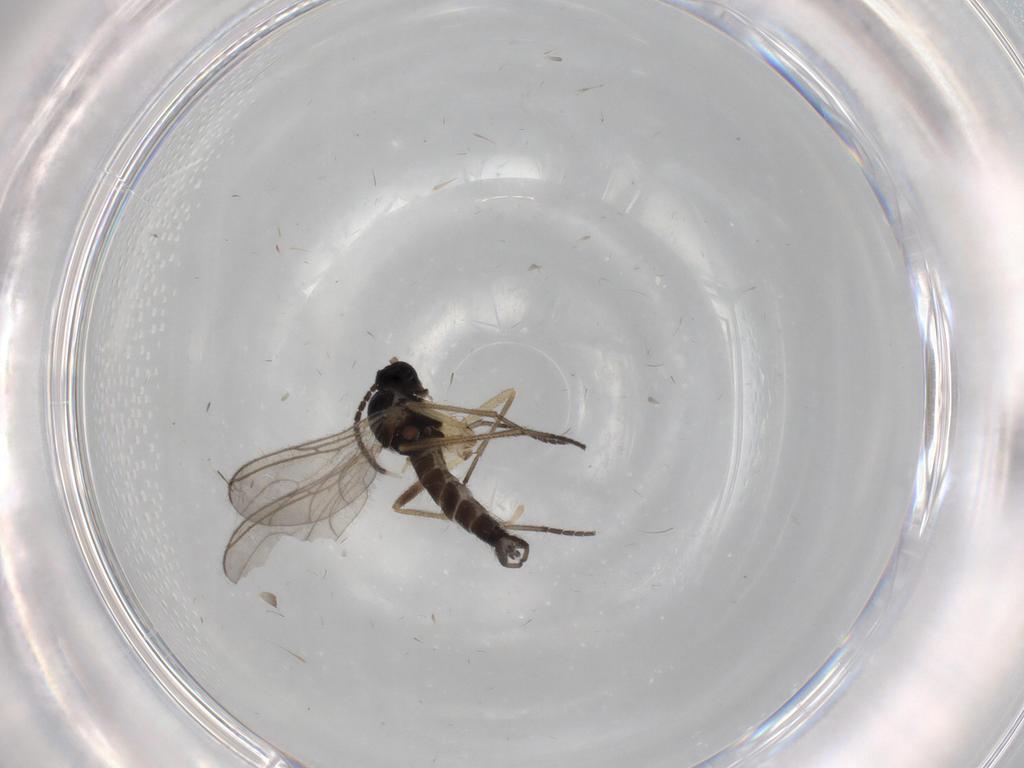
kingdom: Animalia
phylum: Arthropoda
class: Insecta
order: Diptera
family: Sciaridae
